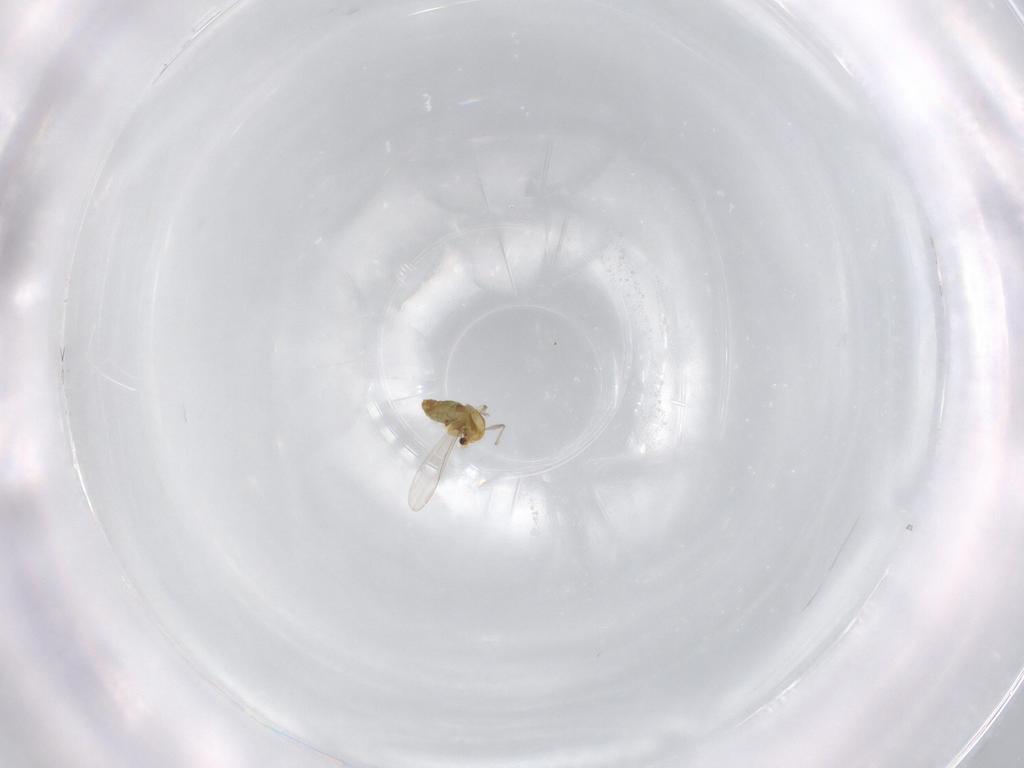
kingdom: Animalia
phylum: Arthropoda
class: Insecta
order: Diptera
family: Chironomidae
